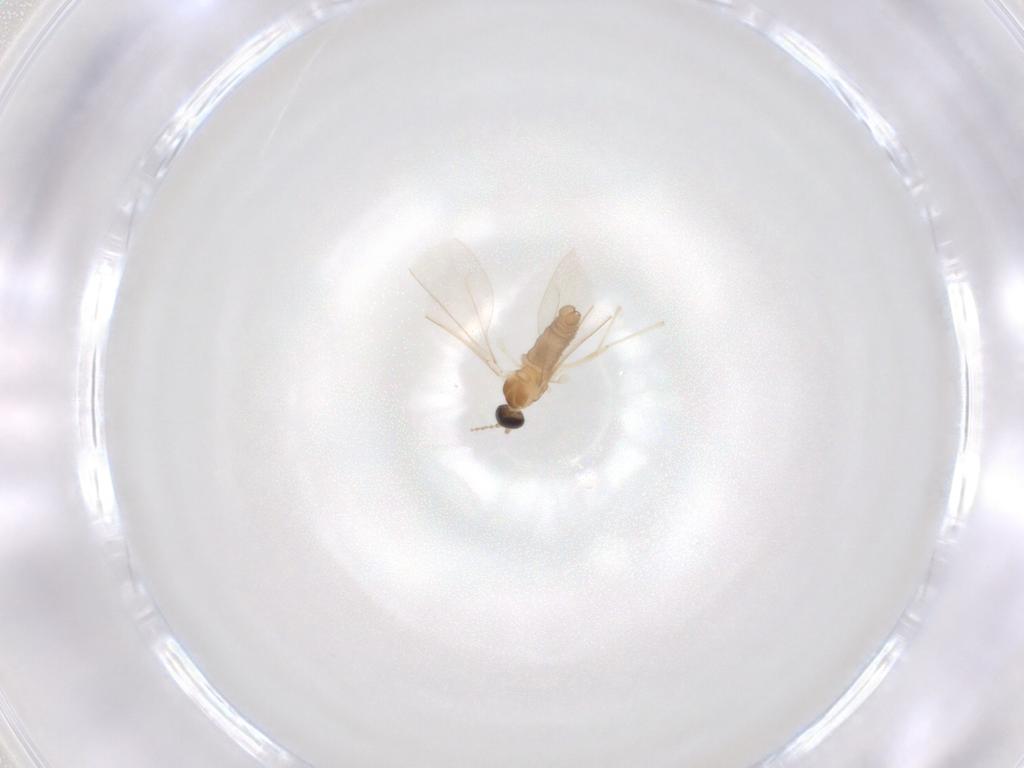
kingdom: Animalia
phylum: Arthropoda
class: Insecta
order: Diptera
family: Cecidomyiidae
